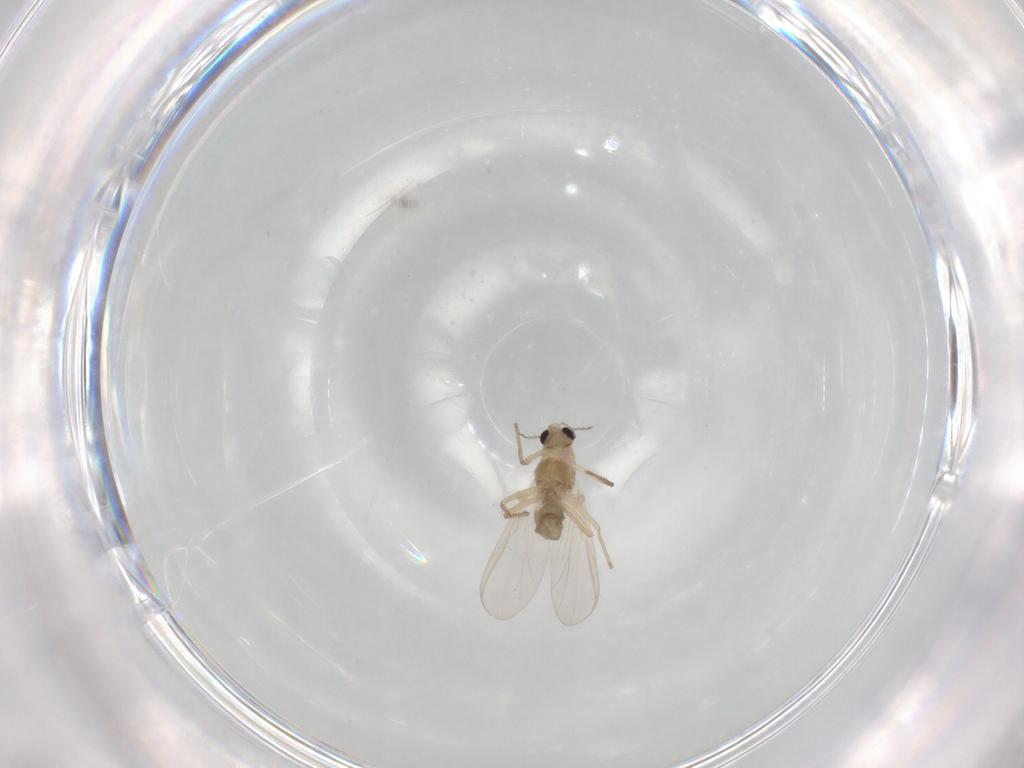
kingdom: Animalia
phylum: Arthropoda
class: Insecta
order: Diptera
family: Chironomidae
